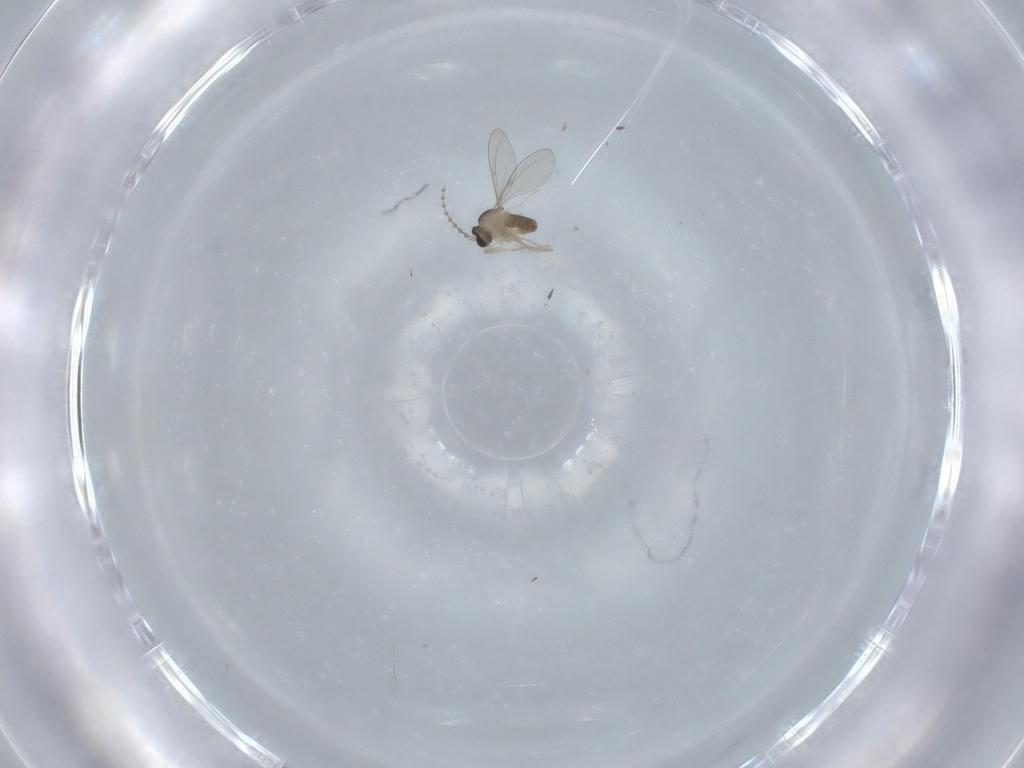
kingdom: Animalia
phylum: Arthropoda
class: Insecta
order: Diptera
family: Cecidomyiidae
